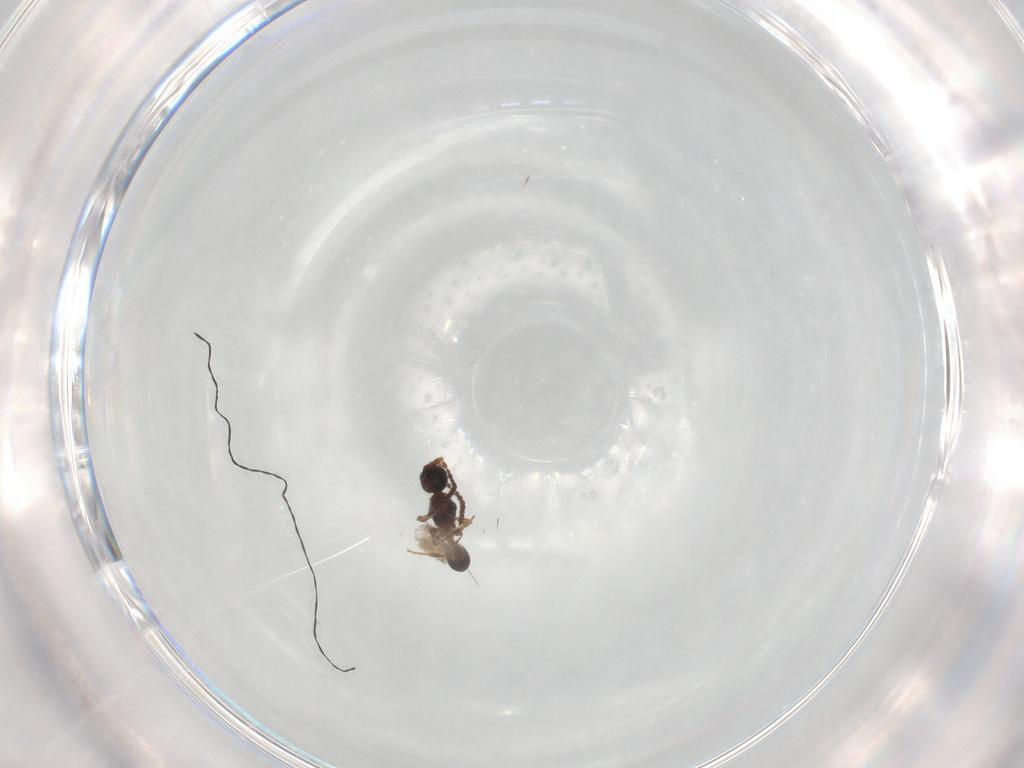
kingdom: Animalia
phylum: Arthropoda
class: Insecta
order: Hymenoptera
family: Diapriidae
